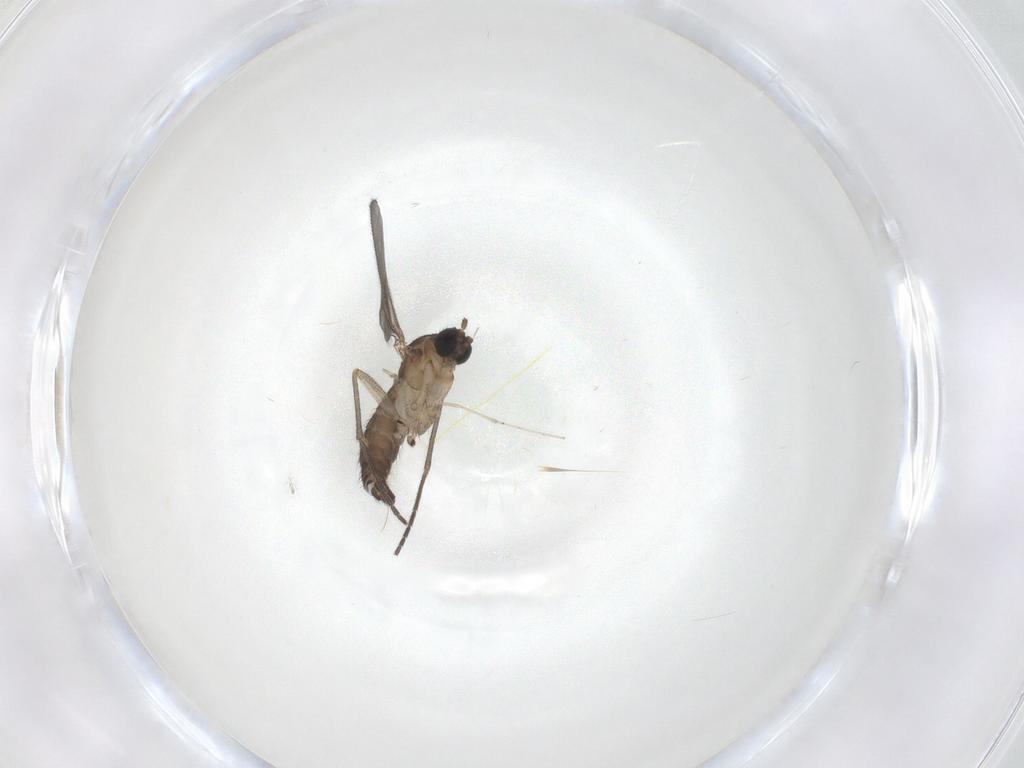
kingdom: Animalia
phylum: Arthropoda
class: Insecta
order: Diptera
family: Sciaridae
